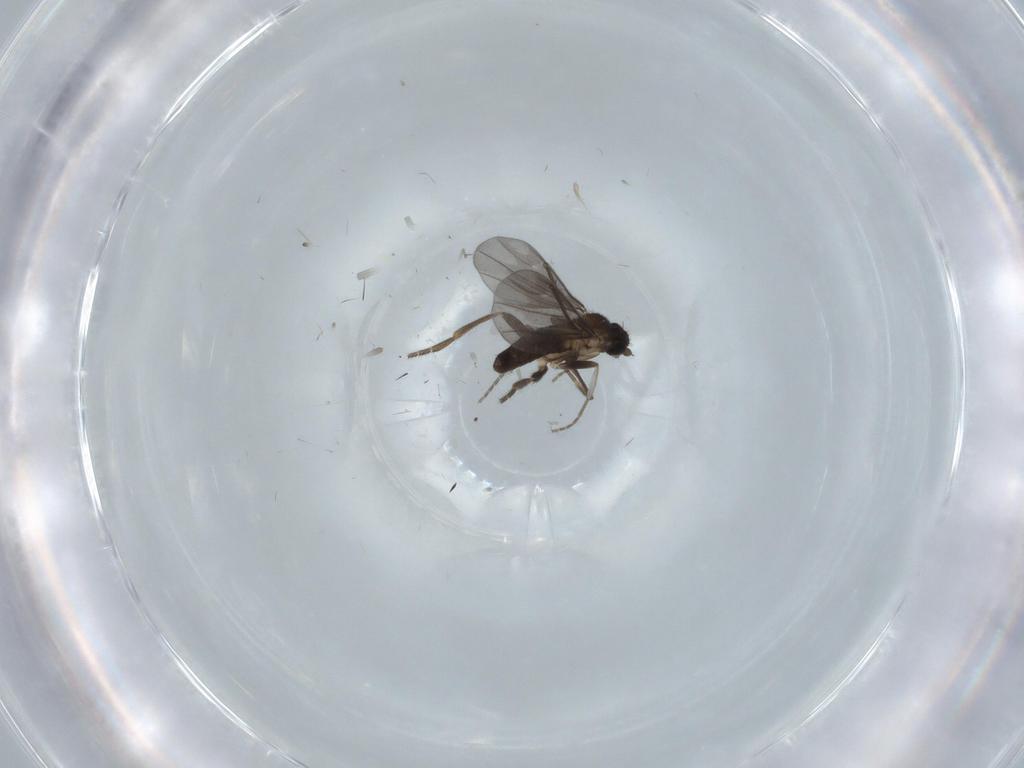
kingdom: Animalia
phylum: Arthropoda
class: Insecta
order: Diptera
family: Phoridae
